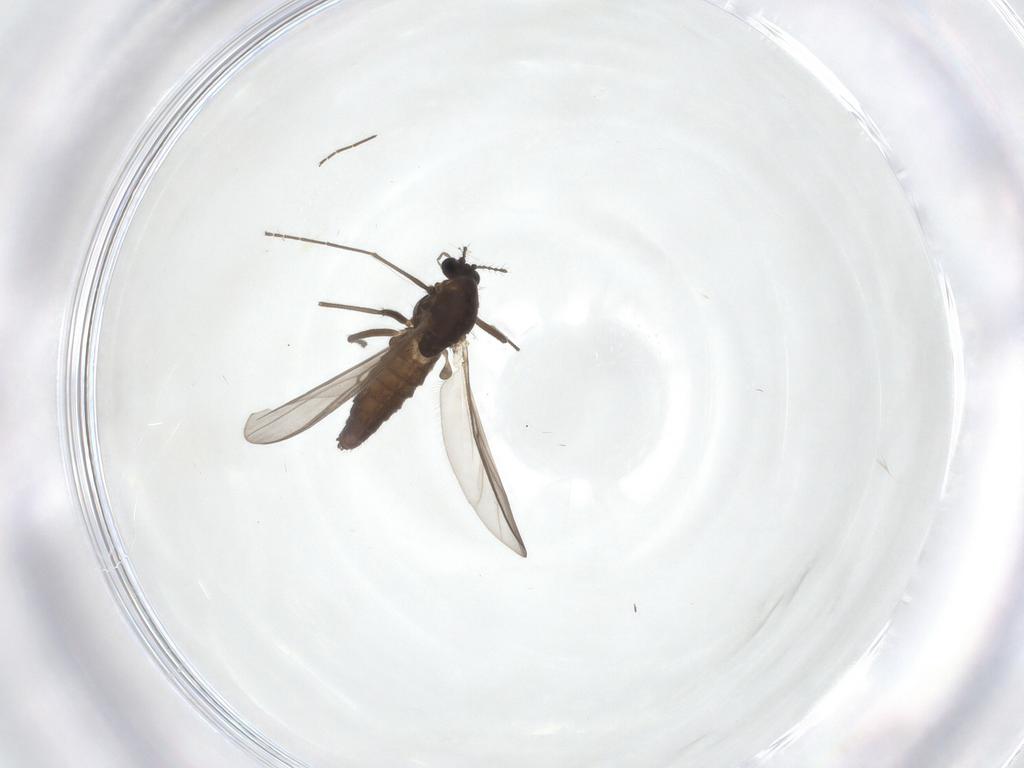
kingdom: Animalia
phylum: Arthropoda
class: Insecta
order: Diptera
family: Chironomidae
